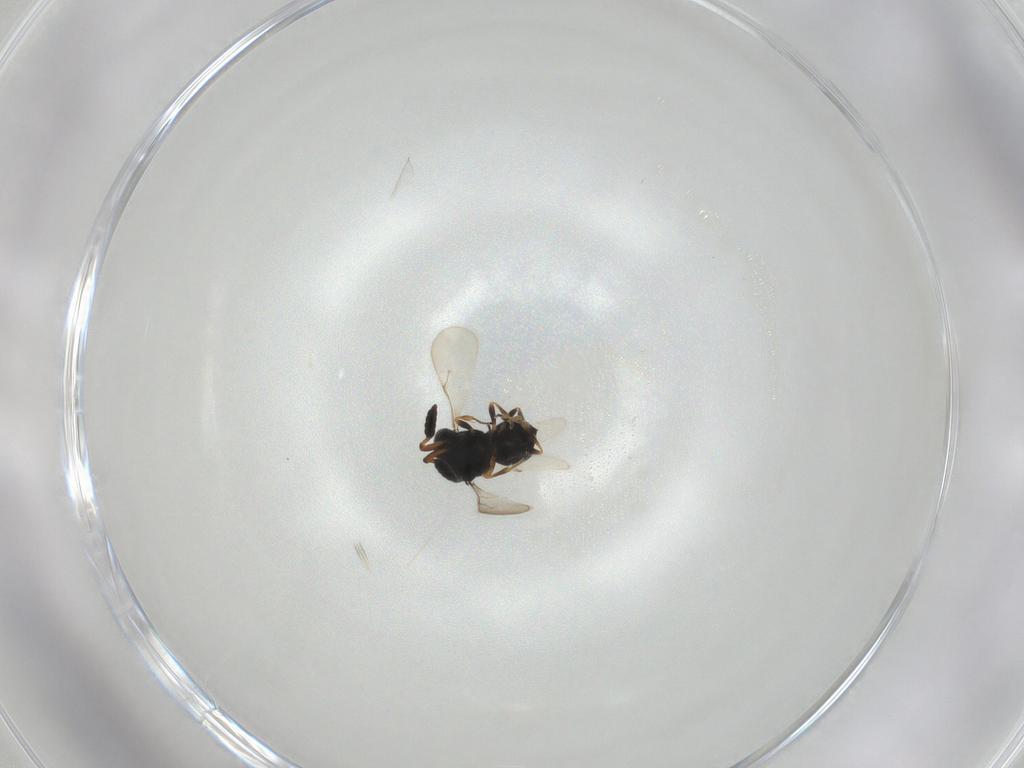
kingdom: Animalia
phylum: Arthropoda
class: Insecta
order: Hymenoptera
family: Scelionidae
